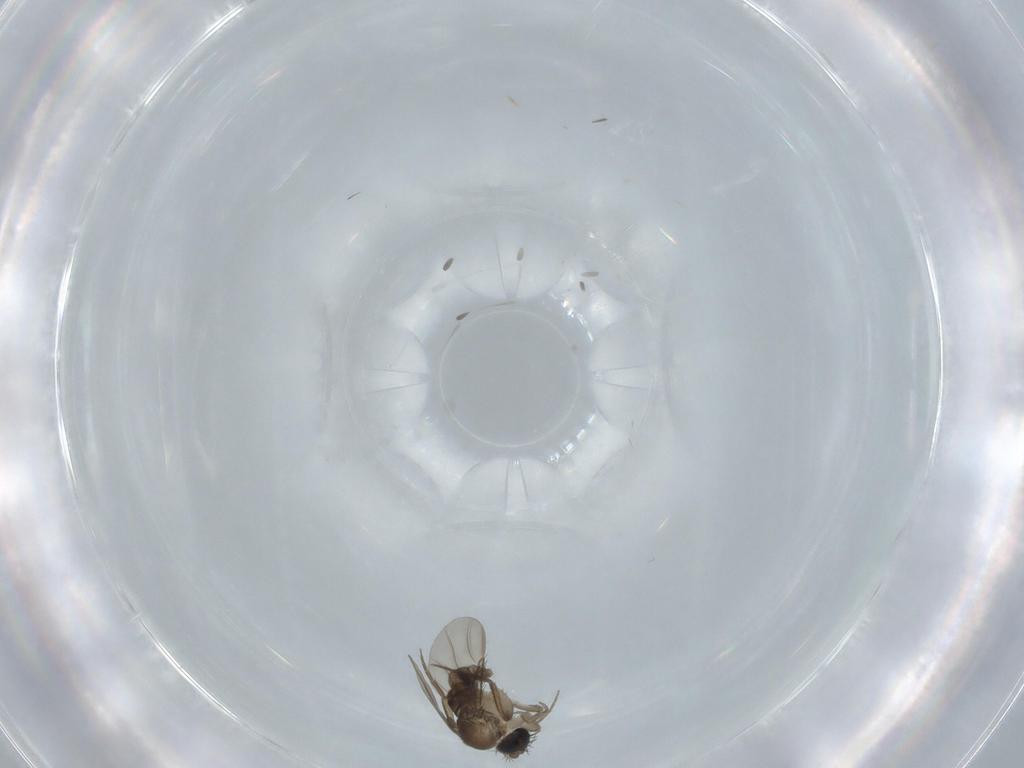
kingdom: Animalia
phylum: Arthropoda
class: Insecta
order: Diptera
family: Phoridae
